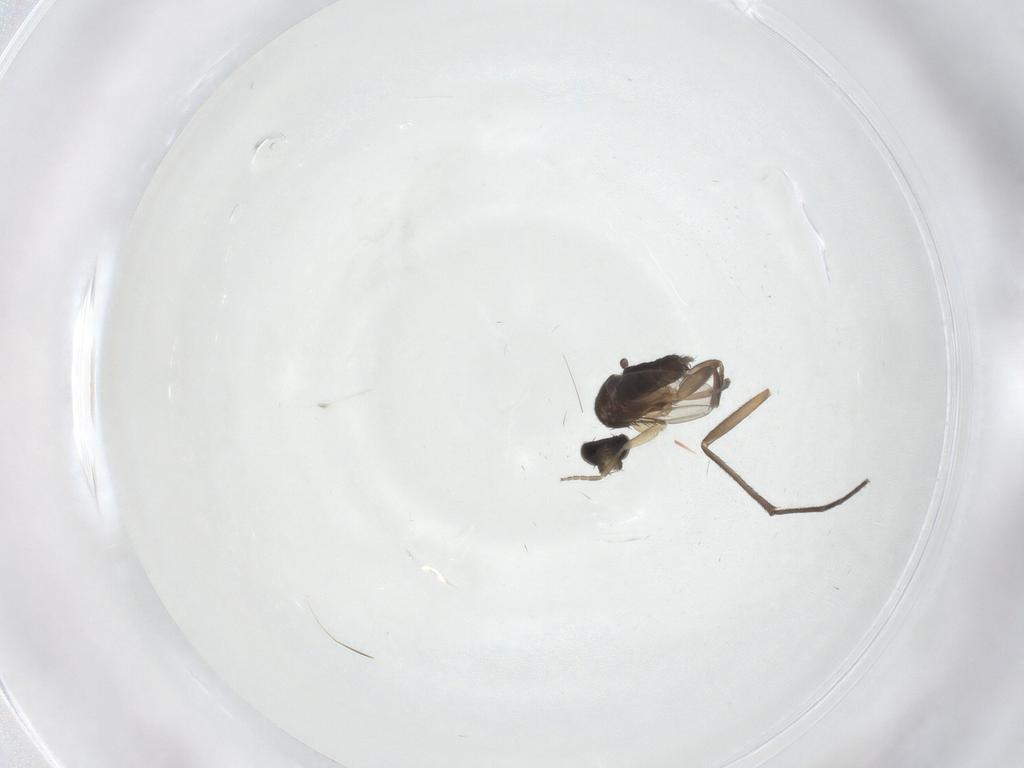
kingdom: Animalia
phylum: Arthropoda
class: Insecta
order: Diptera
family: Phoridae
